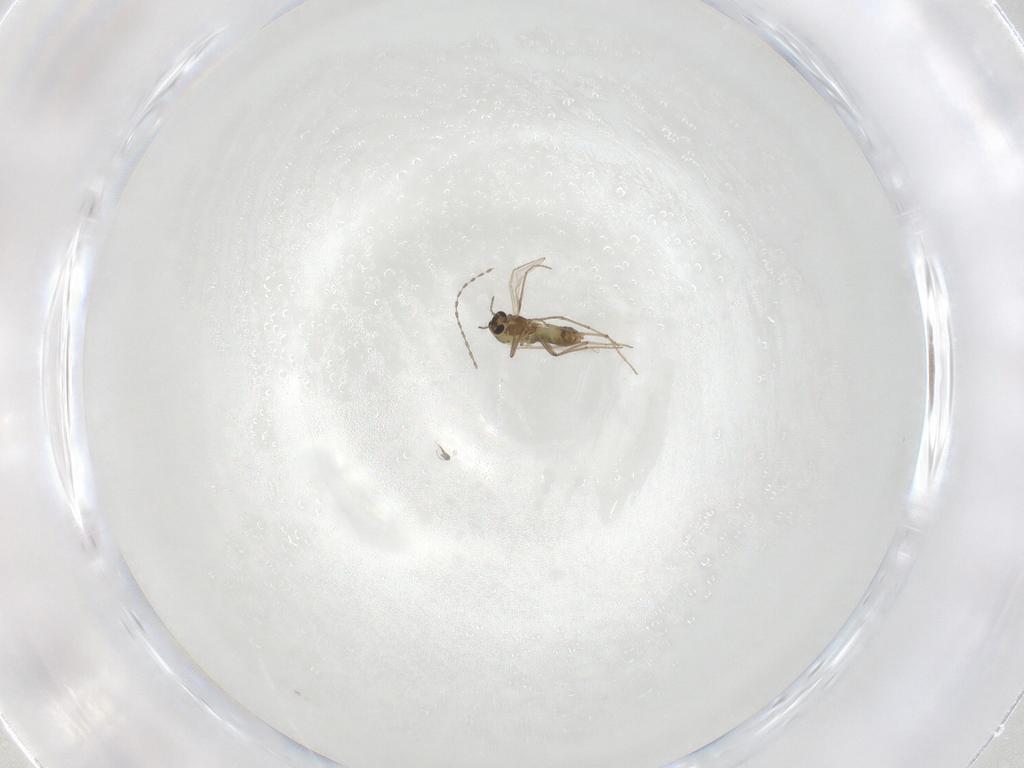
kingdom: Animalia
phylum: Arthropoda
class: Insecta
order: Diptera
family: Chironomidae
